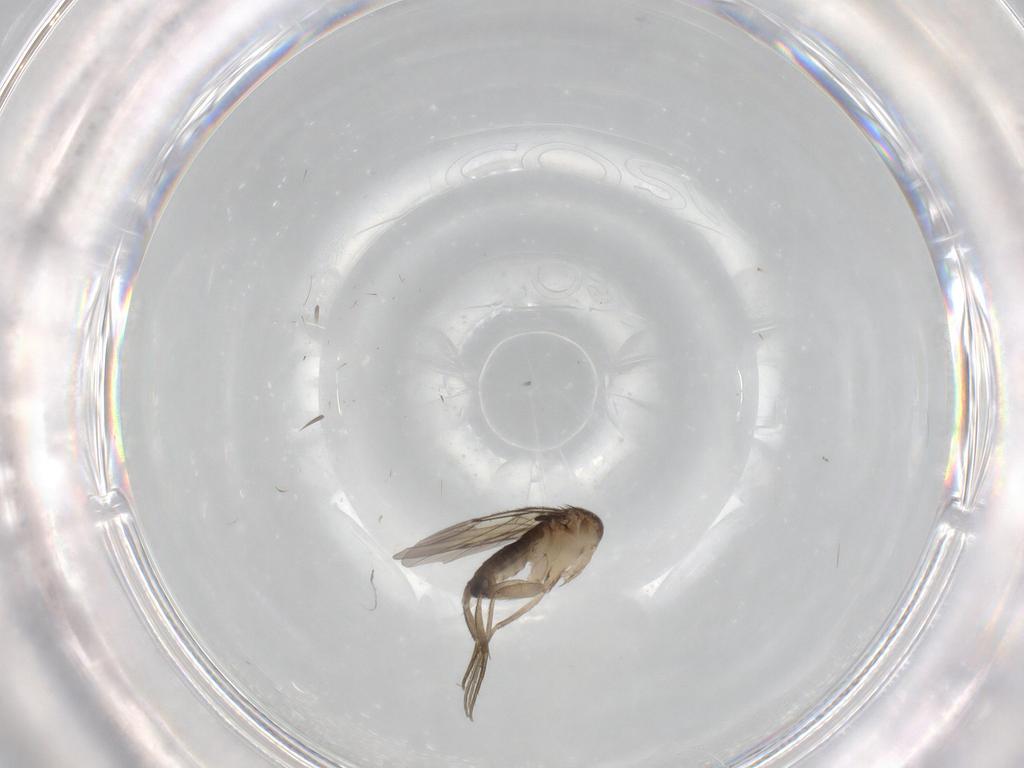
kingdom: Animalia
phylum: Arthropoda
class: Insecta
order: Diptera
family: Phoridae
